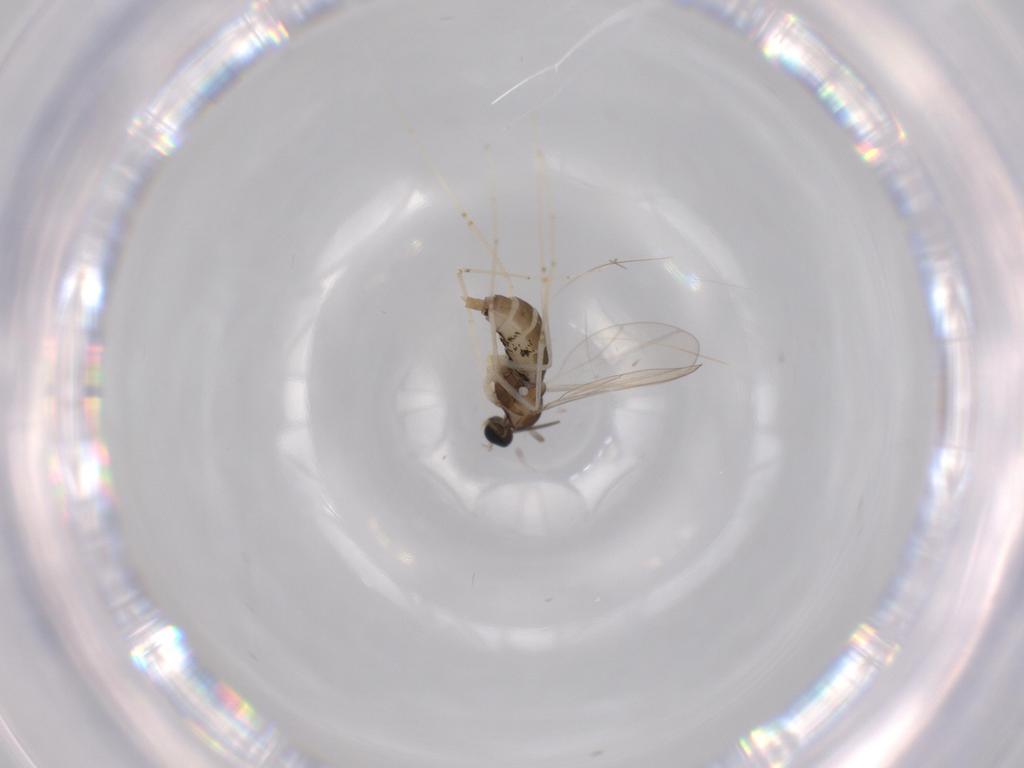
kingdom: Animalia
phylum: Arthropoda
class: Insecta
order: Diptera
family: Cecidomyiidae
